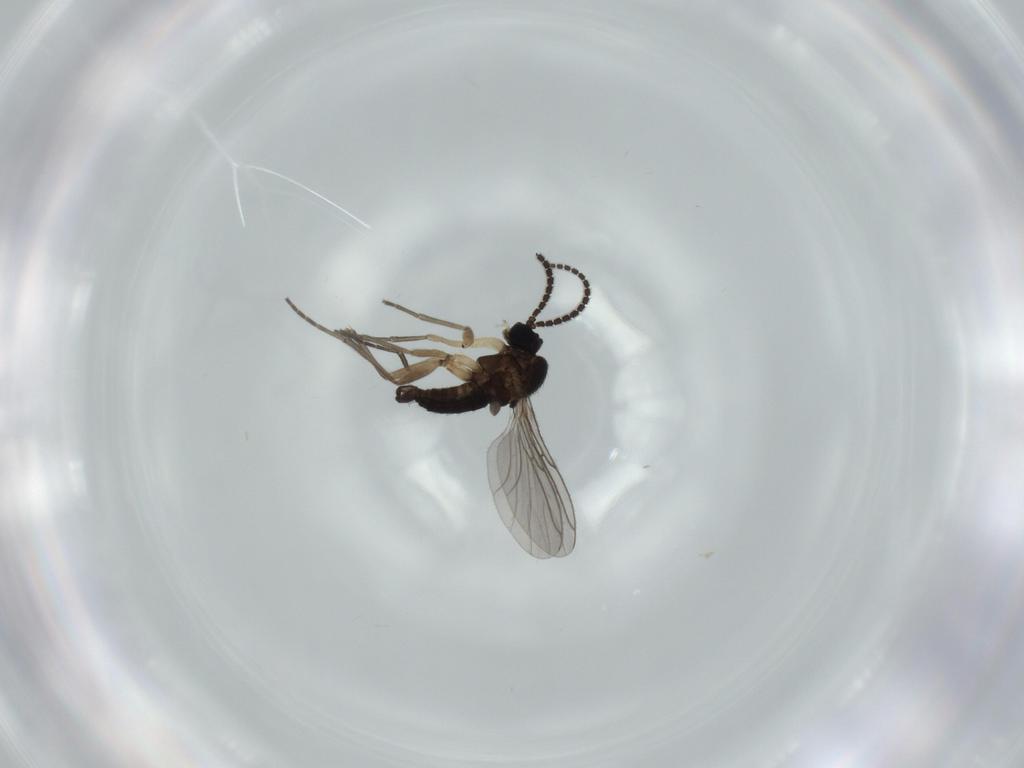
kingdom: Animalia
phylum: Arthropoda
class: Insecta
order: Diptera
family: Sciaridae
